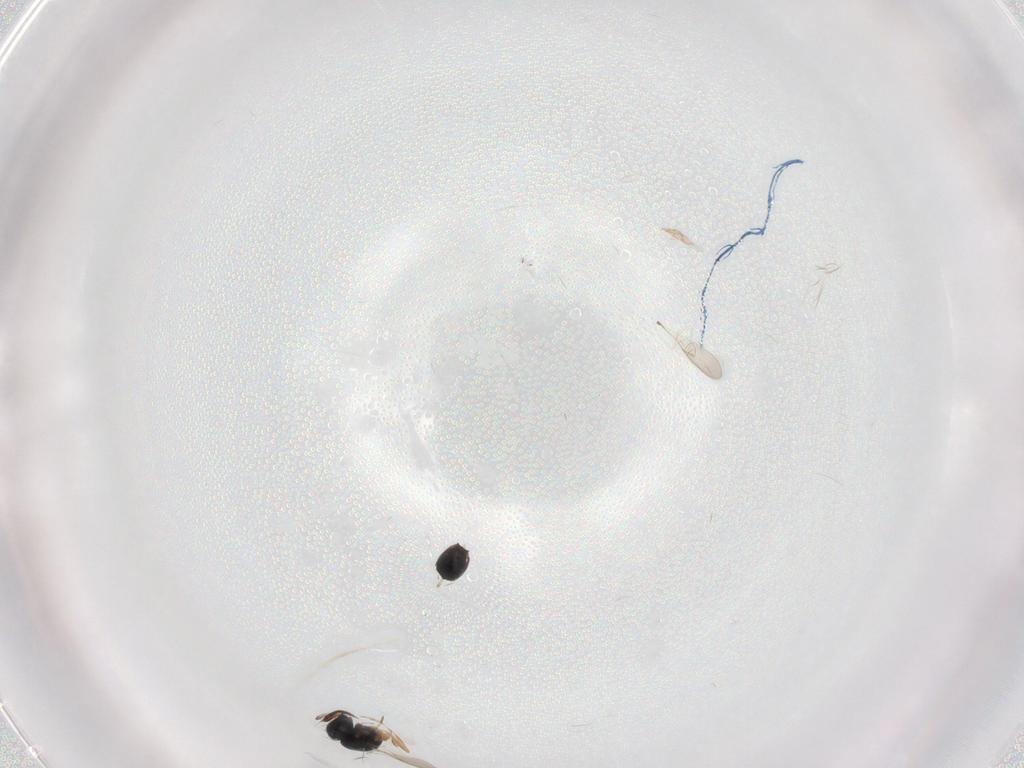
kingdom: Animalia
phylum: Arthropoda
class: Insecta
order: Hymenoptera
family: Scelionidae
